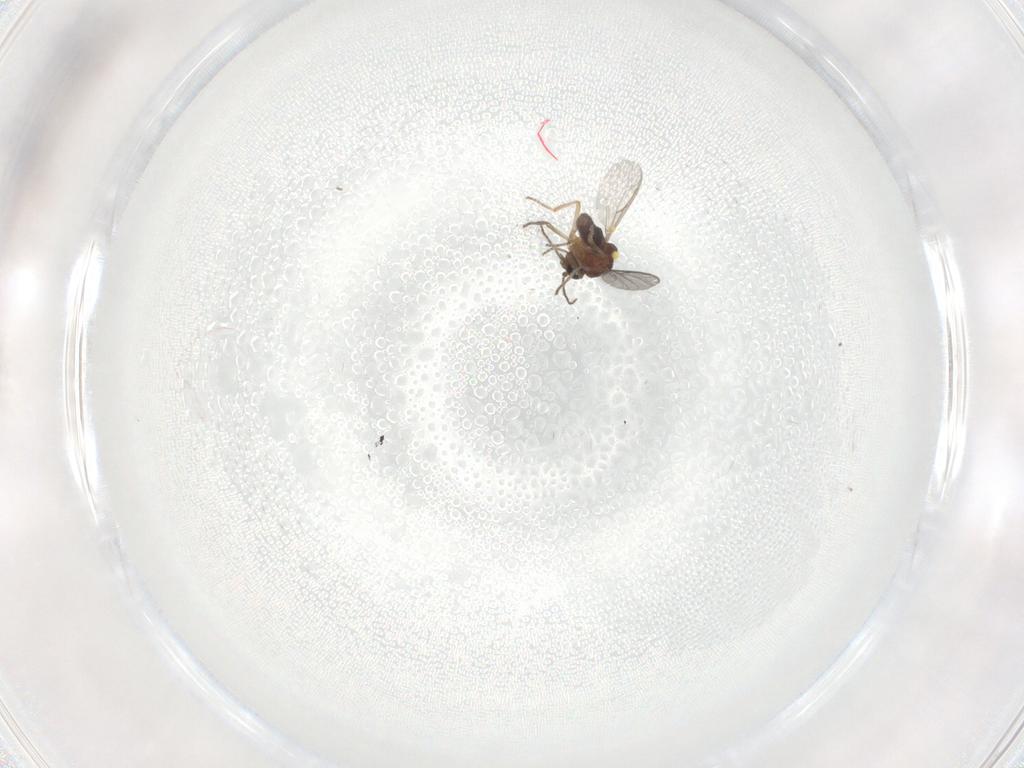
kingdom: Animalia
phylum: Arthropoda
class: Insecta
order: Diptera
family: Ceratopogonidae
